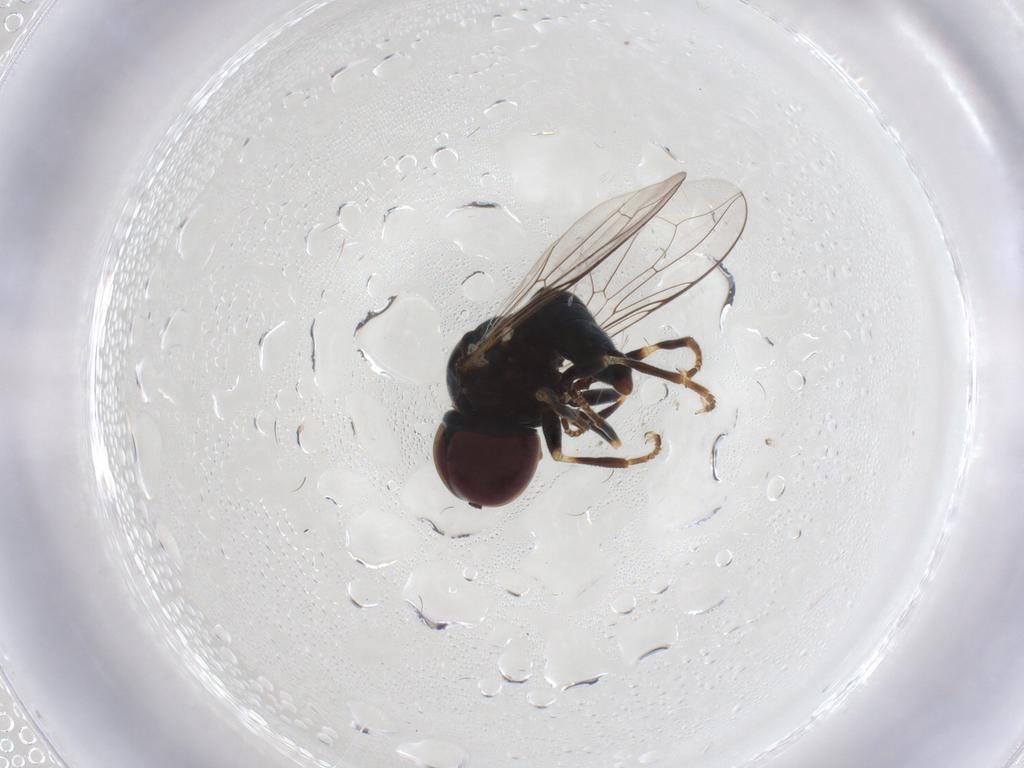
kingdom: Animalia
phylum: Arthropoda
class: Insecta
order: Diptera
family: Pipunculidae
